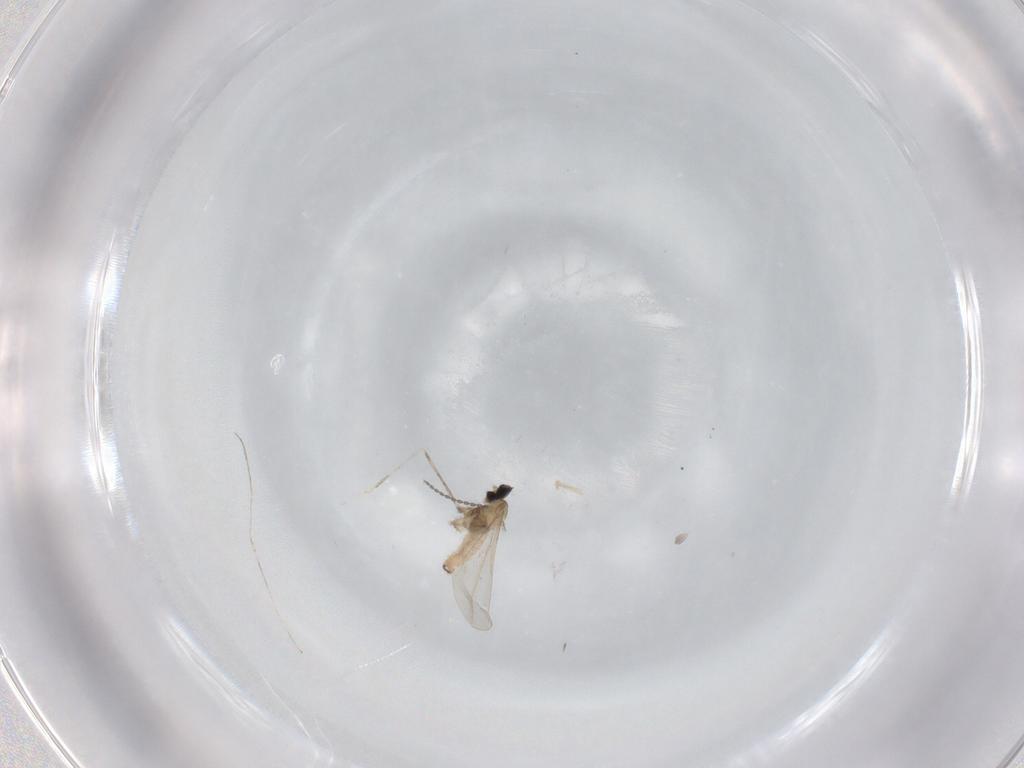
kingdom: Animalia
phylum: Arthropoda
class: Insecta
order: Diptera
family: Cecidomyiidae
